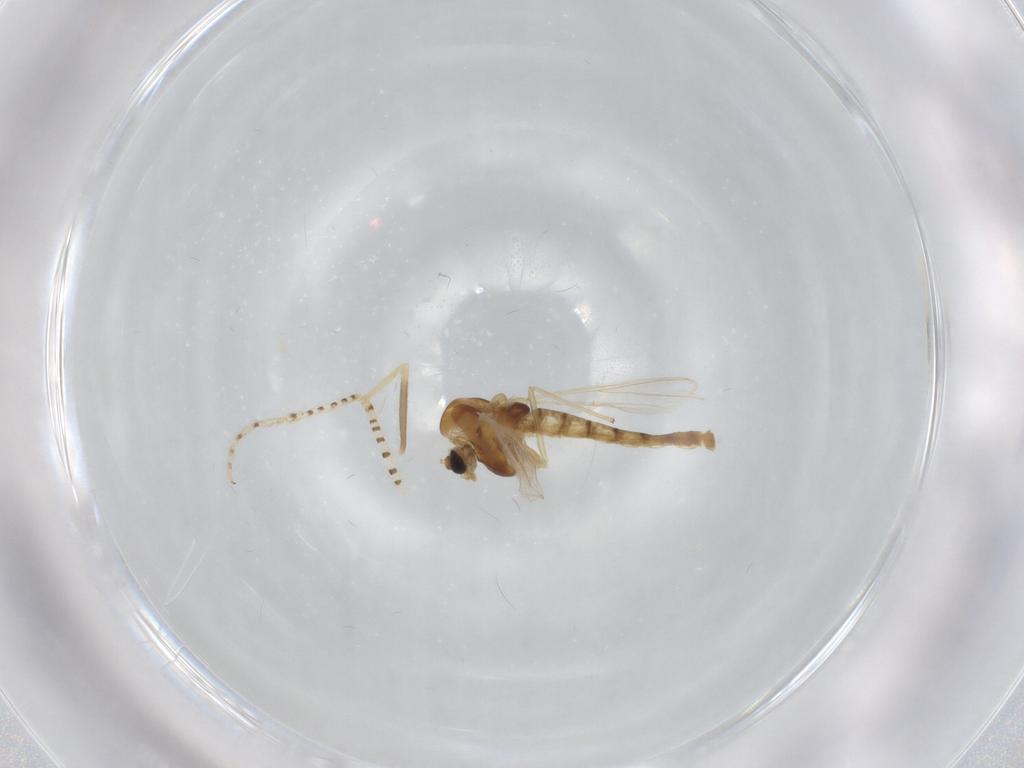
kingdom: Animalia
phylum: Arthropoda
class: Insecta
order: Diptera
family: Chironomidae
